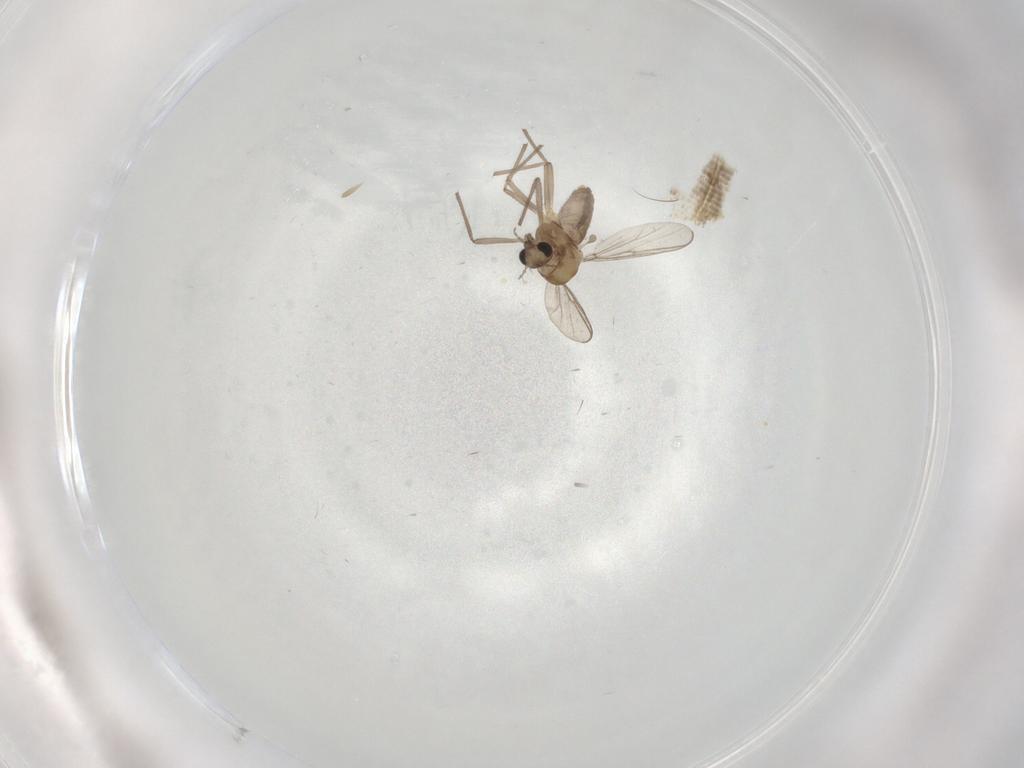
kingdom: Animalia
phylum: Arthropoda
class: Insecta
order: Diptera
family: Chironomidae
